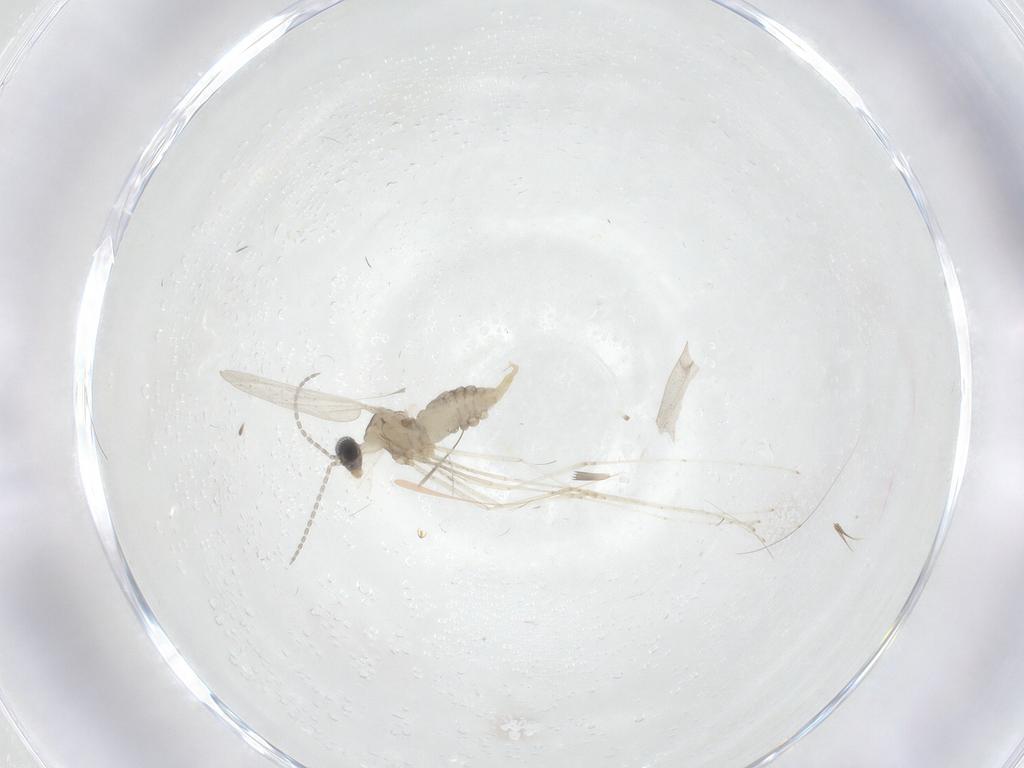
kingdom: Animalia
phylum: Arthropoda
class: Insecta
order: Diptera
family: Cecidomyiidae
